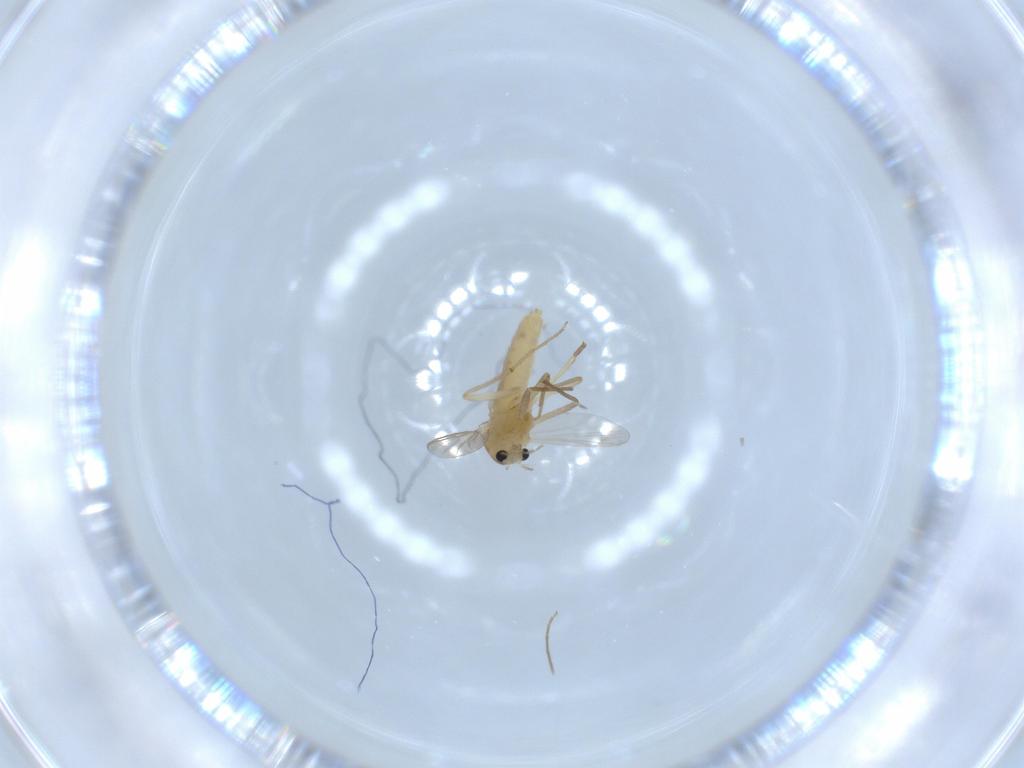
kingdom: Animalia
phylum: Arthropoda
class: Insecta
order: Diptera
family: Chironomidae
